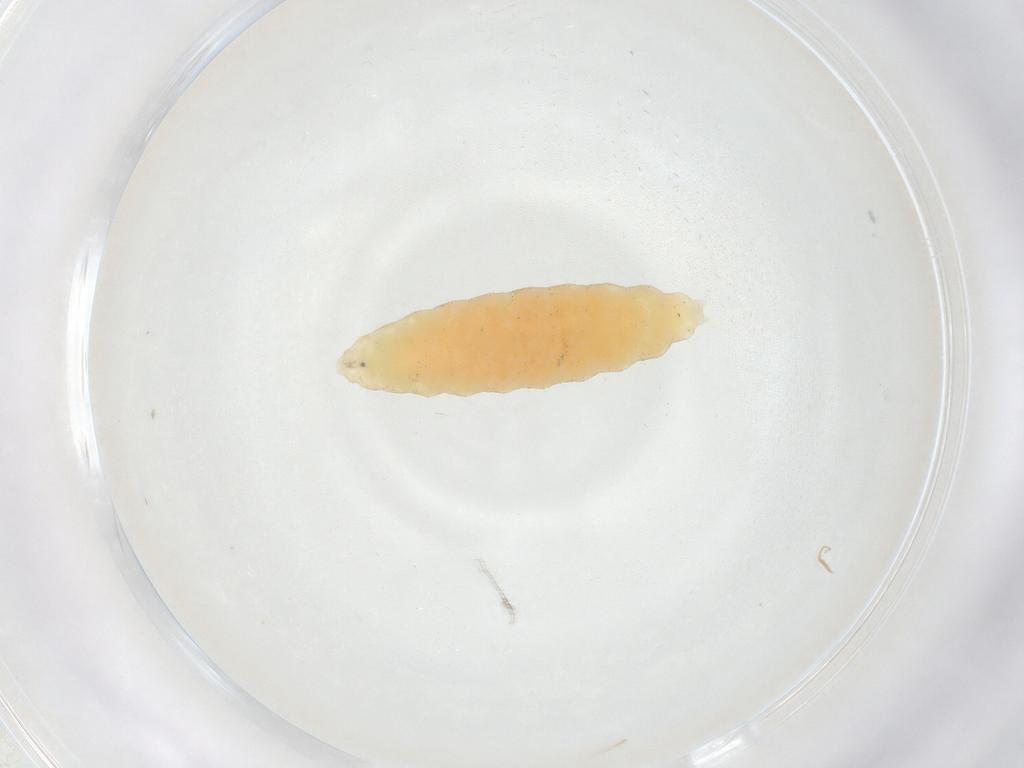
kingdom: Animalia
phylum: Arthropoda
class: Insecta
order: Diptera
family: Cecidomyiidae
